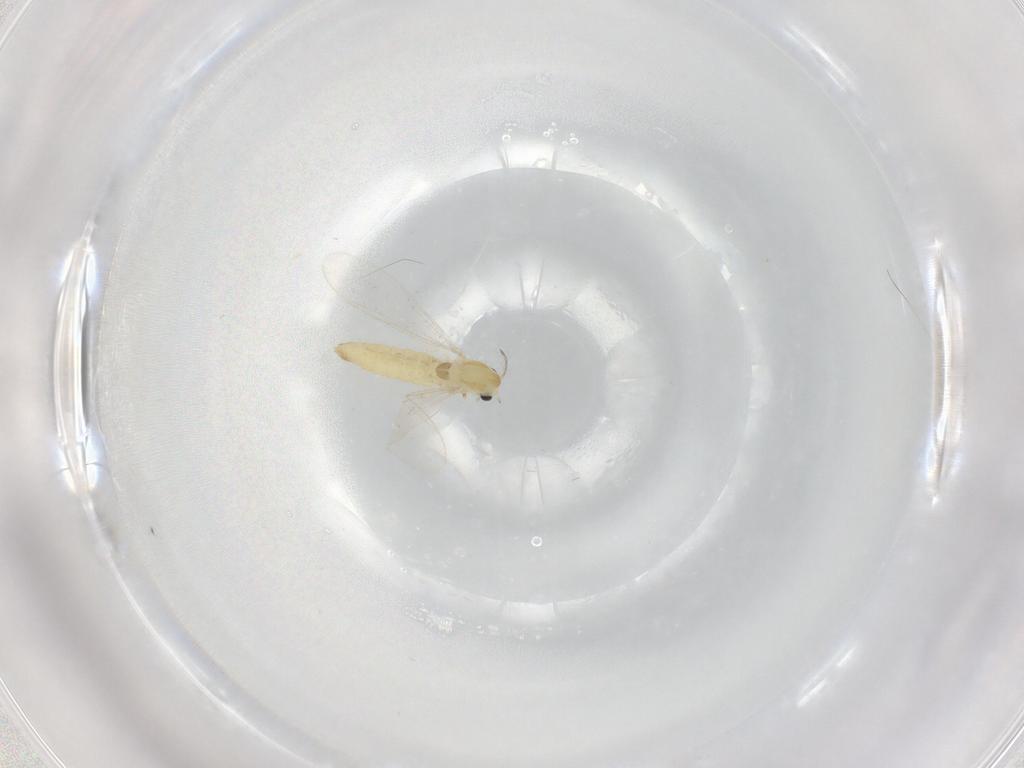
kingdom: Animalia
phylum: Arthropoda
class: Insecta
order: Diptera
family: Chironomidae
